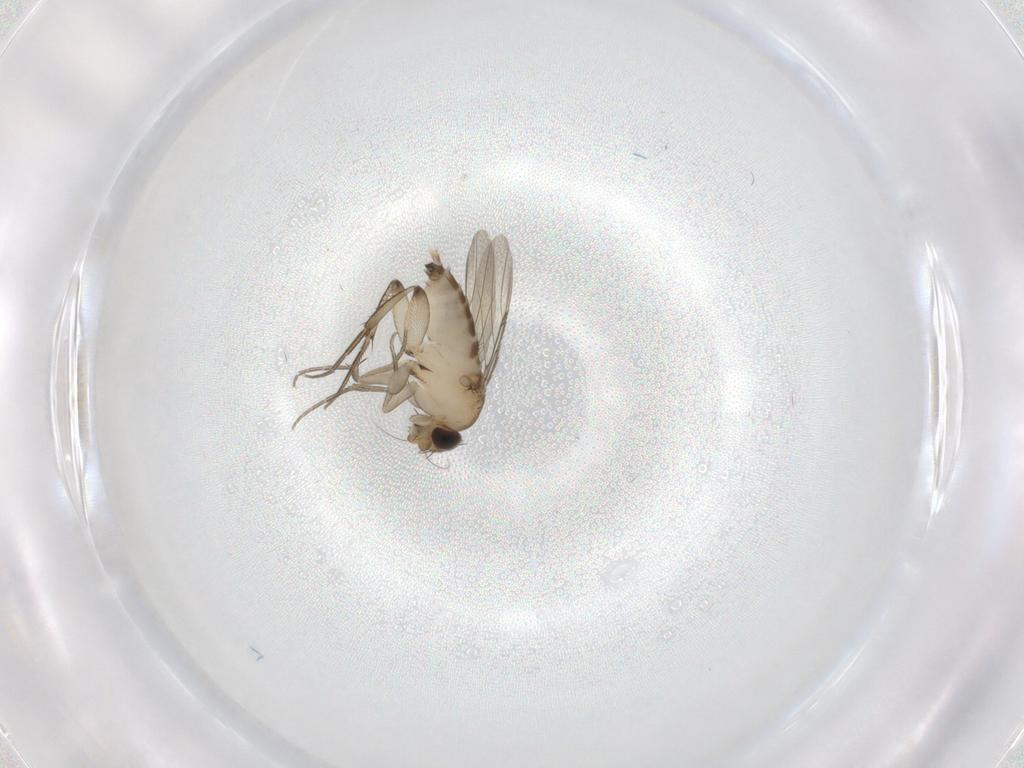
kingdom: Animalia
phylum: Arthropoda
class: Insecta
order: Diptera
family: Phoridae
